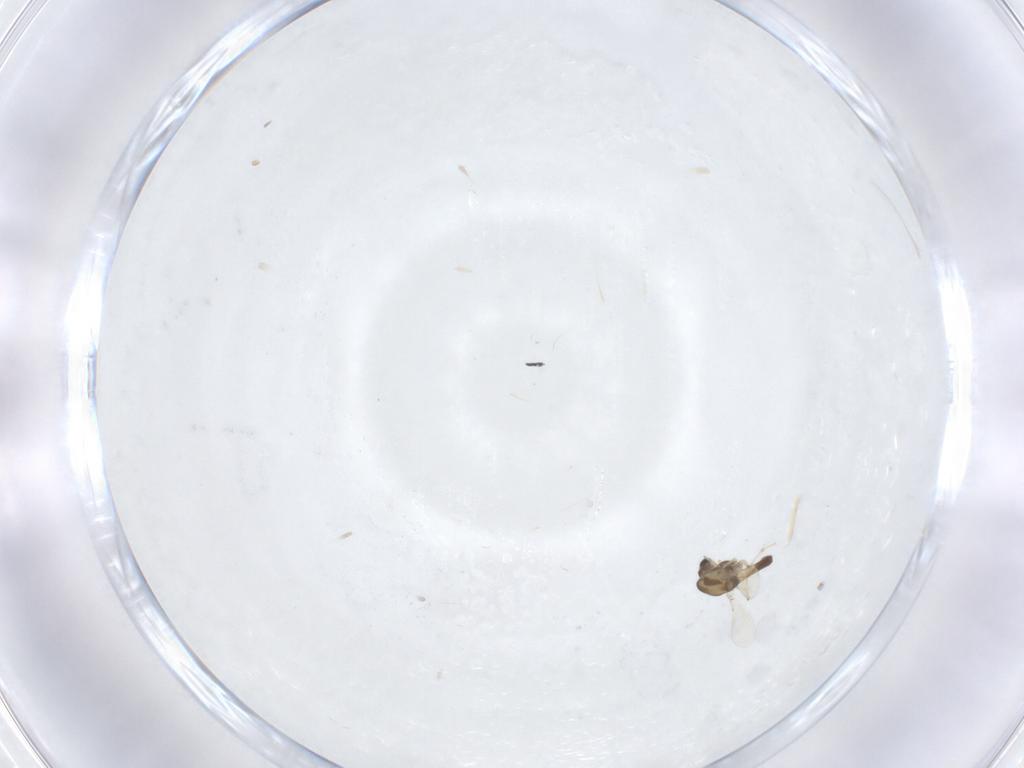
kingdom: Animalia
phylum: Arthropoda
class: Insecta
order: Diptera
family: Chironomidae
